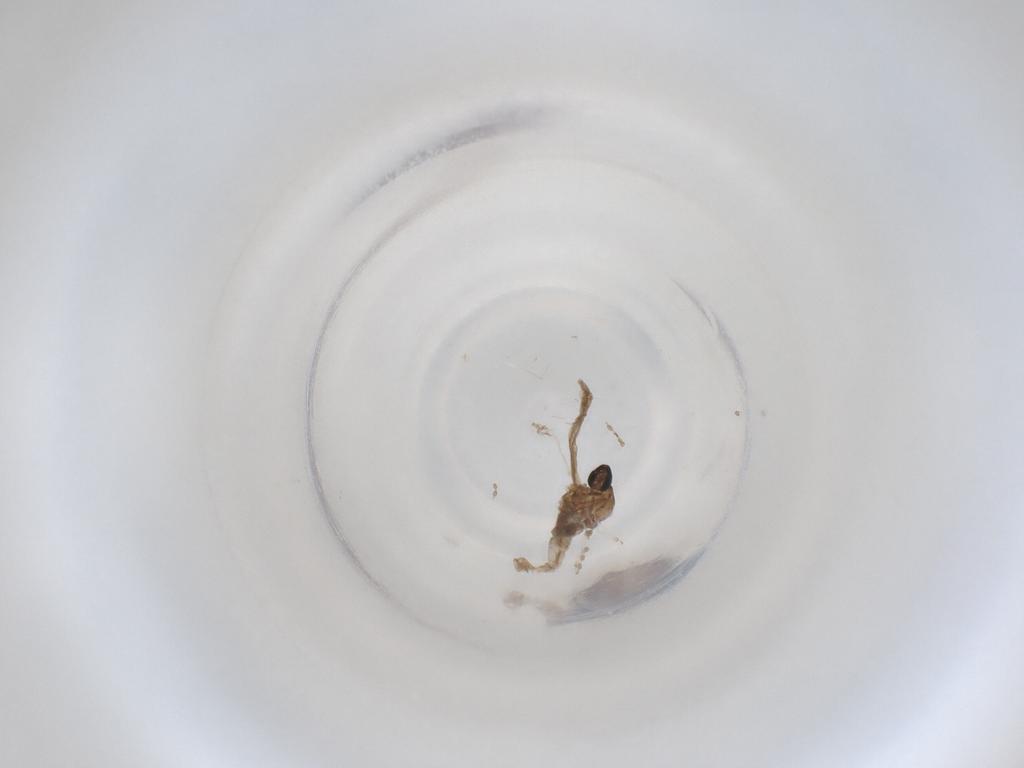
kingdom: Animalia
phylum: Arthropoda
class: Insecta
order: Diptera
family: Cecidomyiidae
